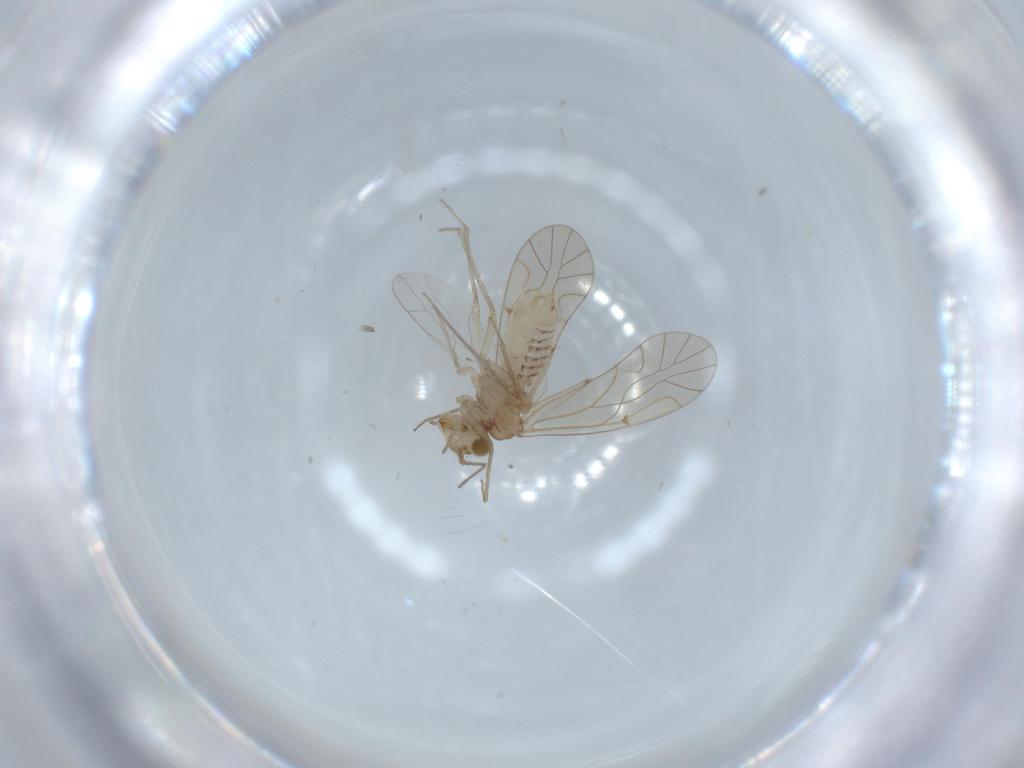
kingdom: Animalia
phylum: Arthropoda
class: Insecta
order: Psocodea
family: Lachesillidae
